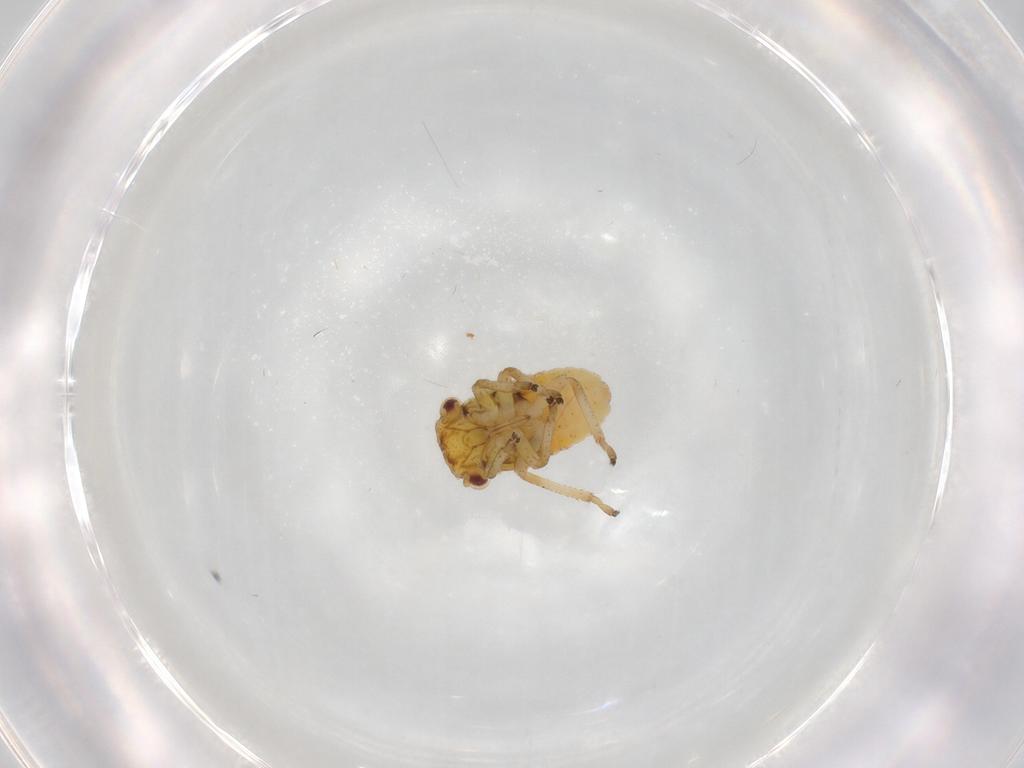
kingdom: Animalia
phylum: Arthropoda
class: Insecta
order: Hemiptera
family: Cicadellidae
